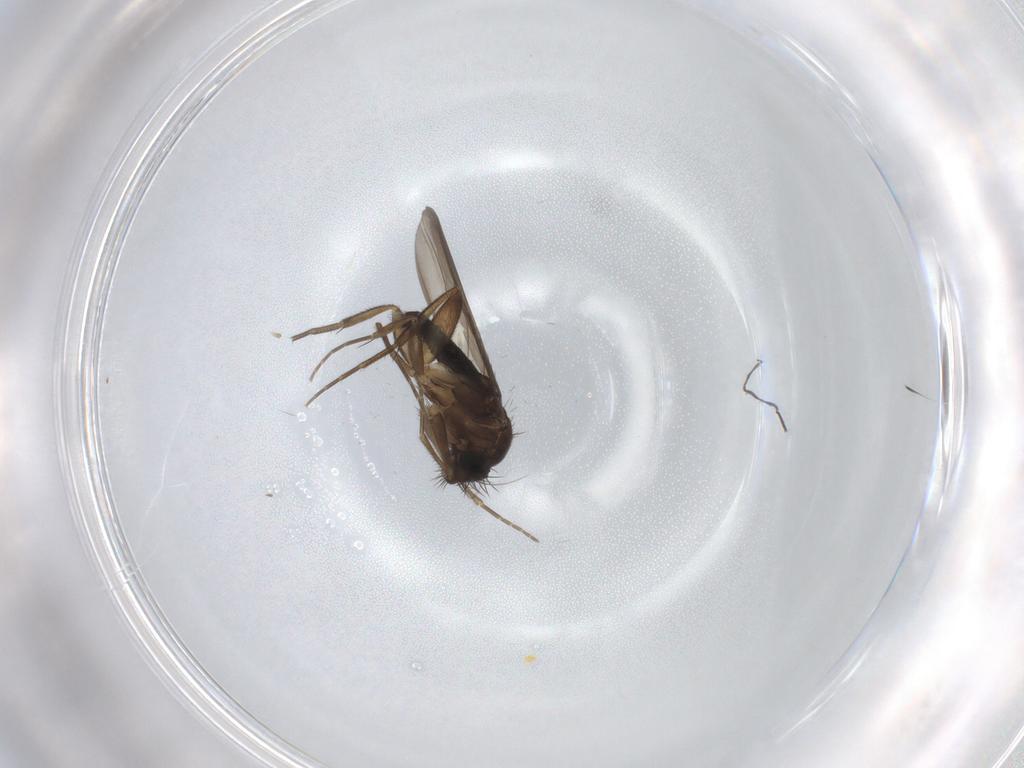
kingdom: Animalia
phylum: Arthropoda
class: Insecta
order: Diptera
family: Phoridae
